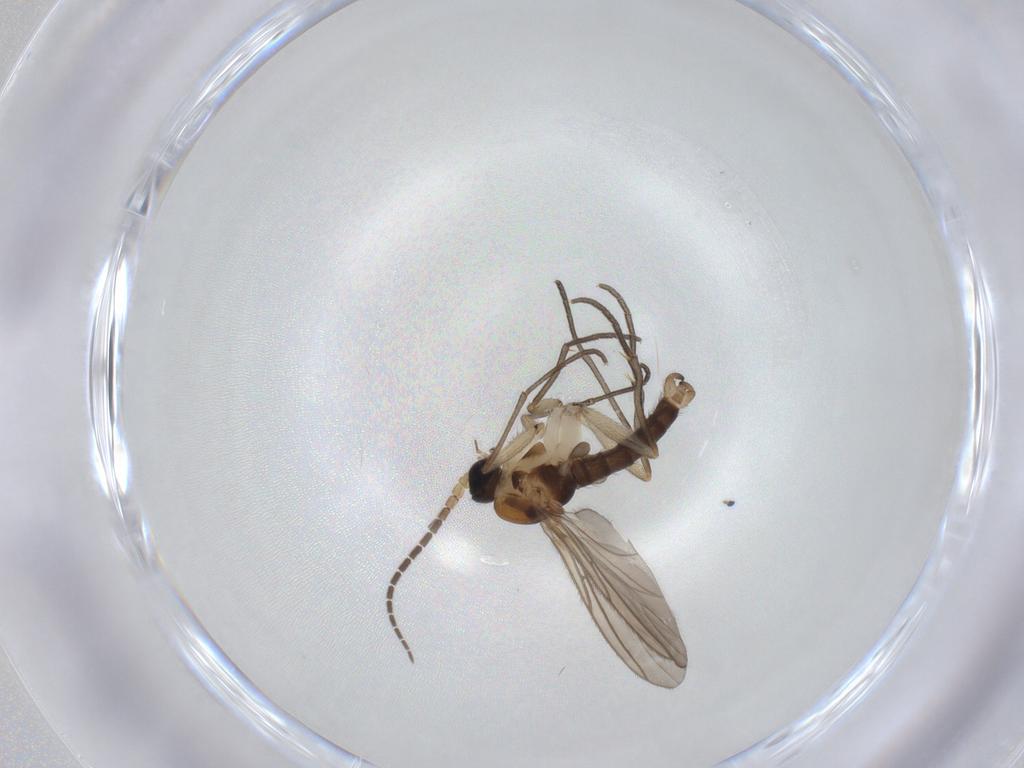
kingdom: Animalia
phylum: Arthropoda
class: Insecta
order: Diptera
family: Sciaridae
